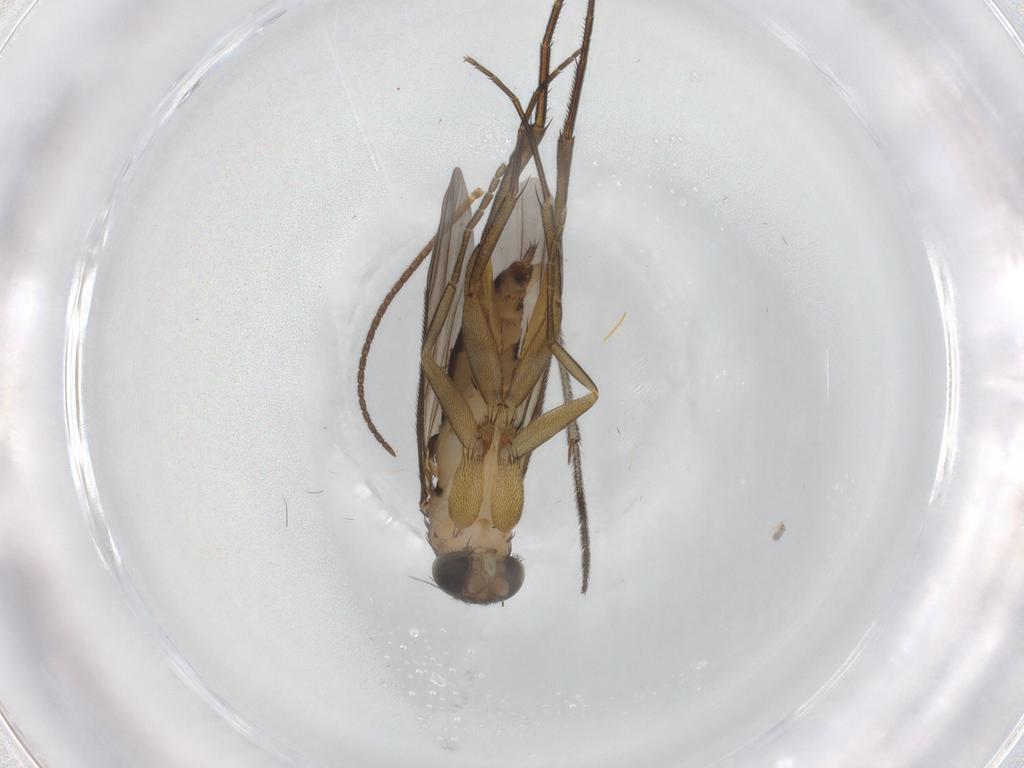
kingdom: Animalia
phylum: Arthropoda
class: Insecta
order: Diptera
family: Phoridae
